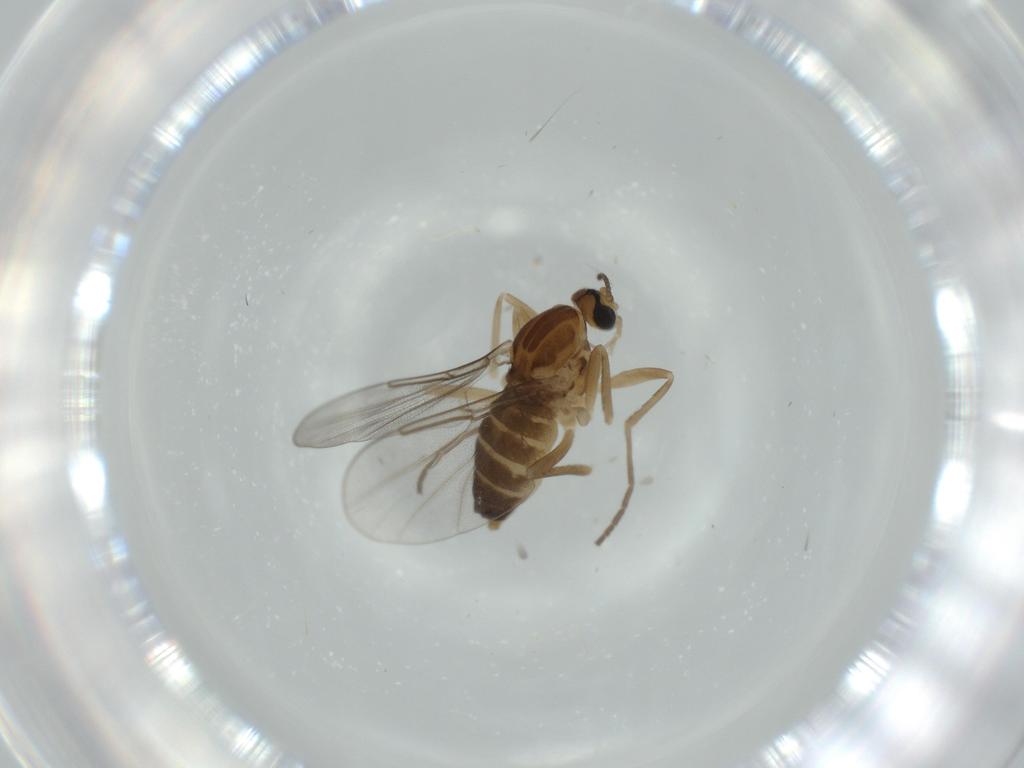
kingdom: Animalia
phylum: Arthropoda
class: Insecta
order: Diptera
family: Cecidomyiidae
